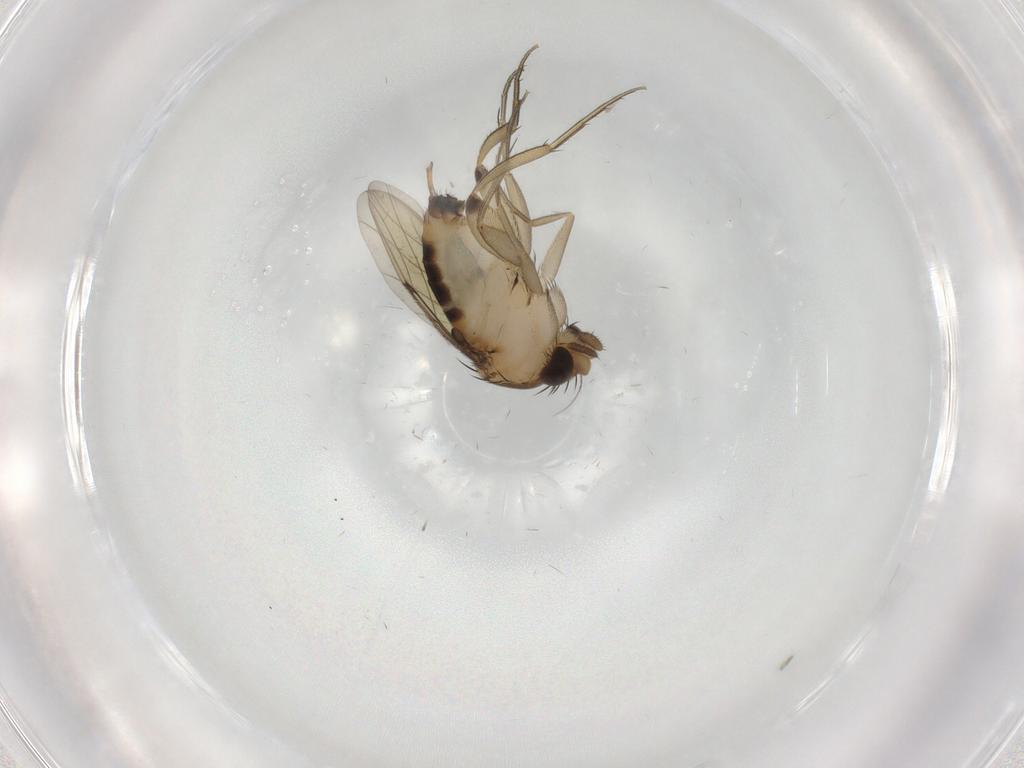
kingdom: Animalia
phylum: Arthropoda
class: Insecta
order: Diptera
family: Phoridae
